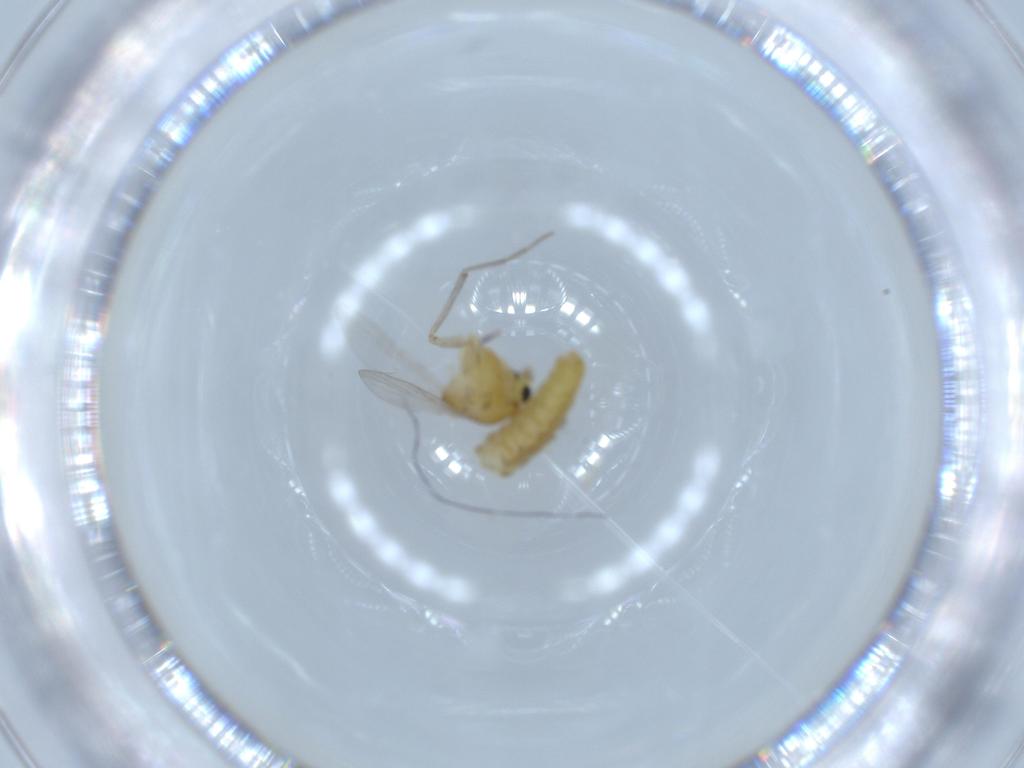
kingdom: Animalia
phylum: Arthropoda
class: Insecta
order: Diptera
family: Chironomidae
